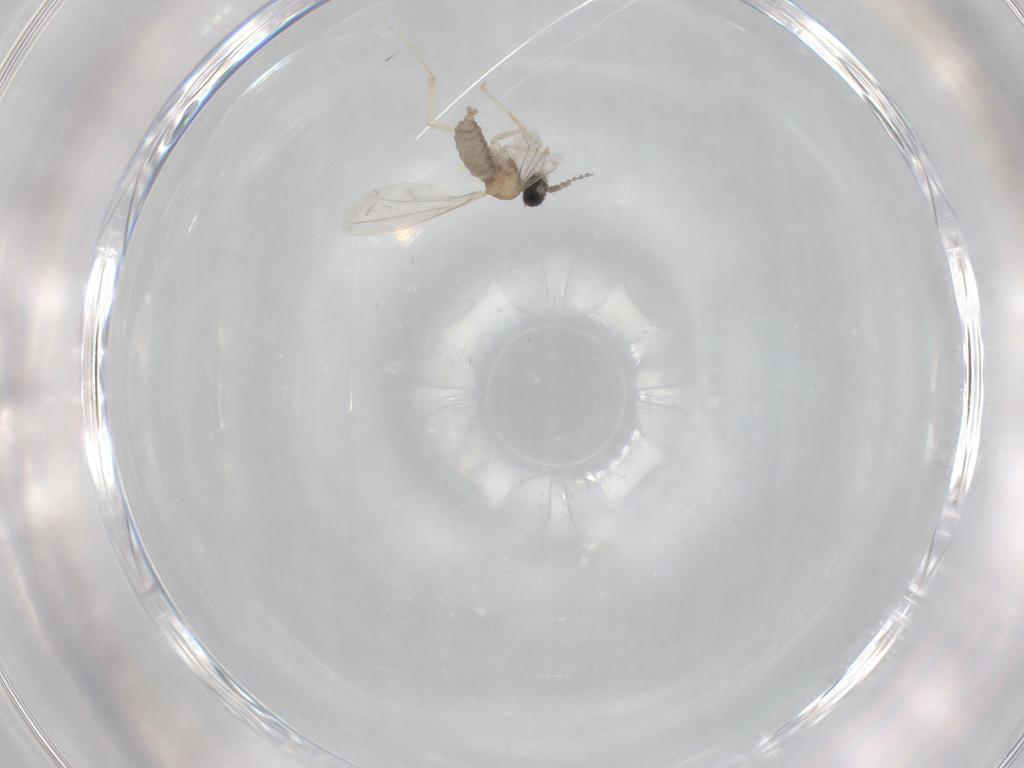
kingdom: Animalia
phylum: Arthropoda
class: Insecta
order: Diptera
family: Cecidomyiidae
